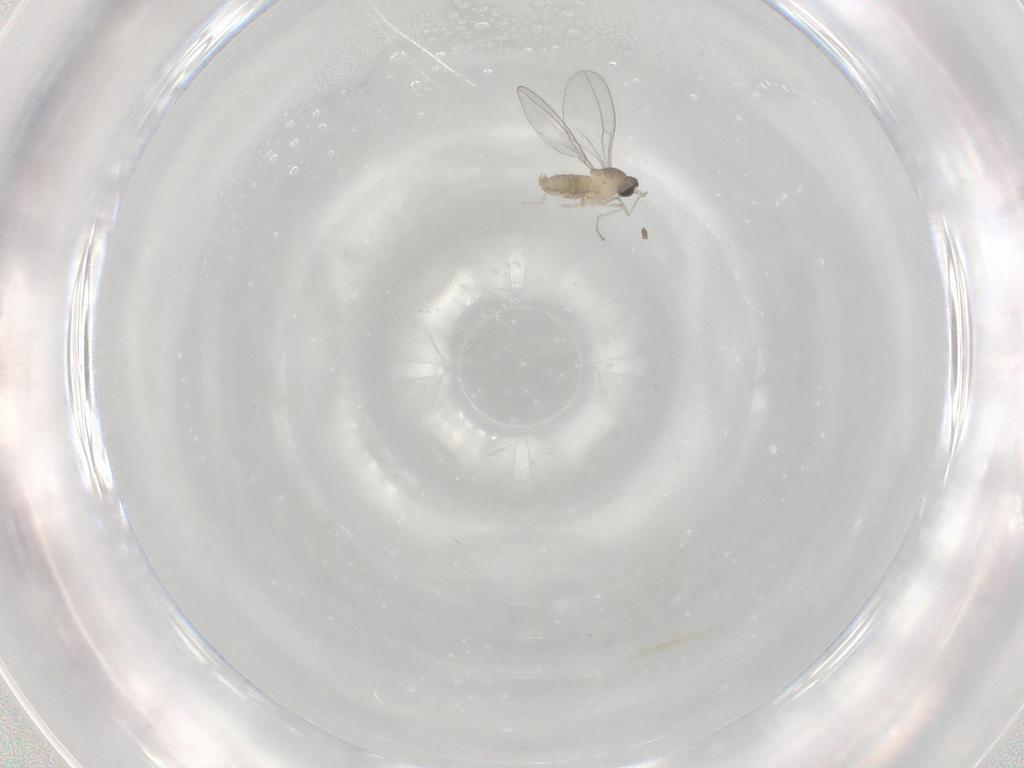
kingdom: Animalia
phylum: Arthropoda
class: Insecta
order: Diptera
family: Cecidomyiidae
